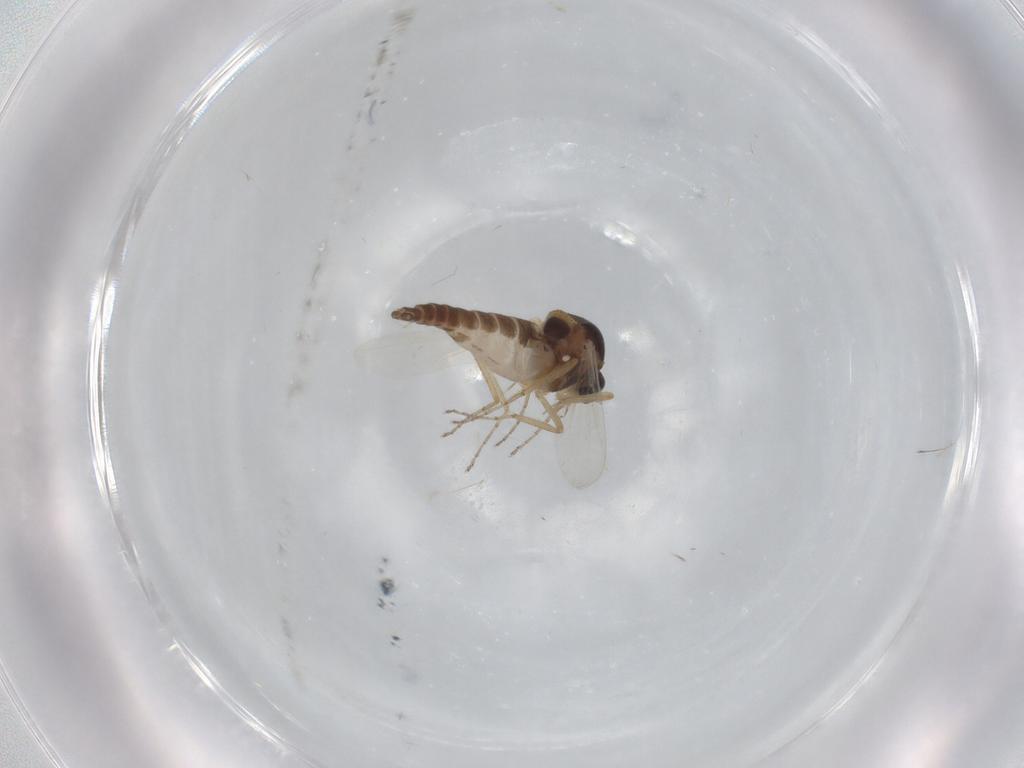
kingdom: Animalia
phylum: Arthropoda
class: Insecta
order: Diptera
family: Ceratopogonidae
